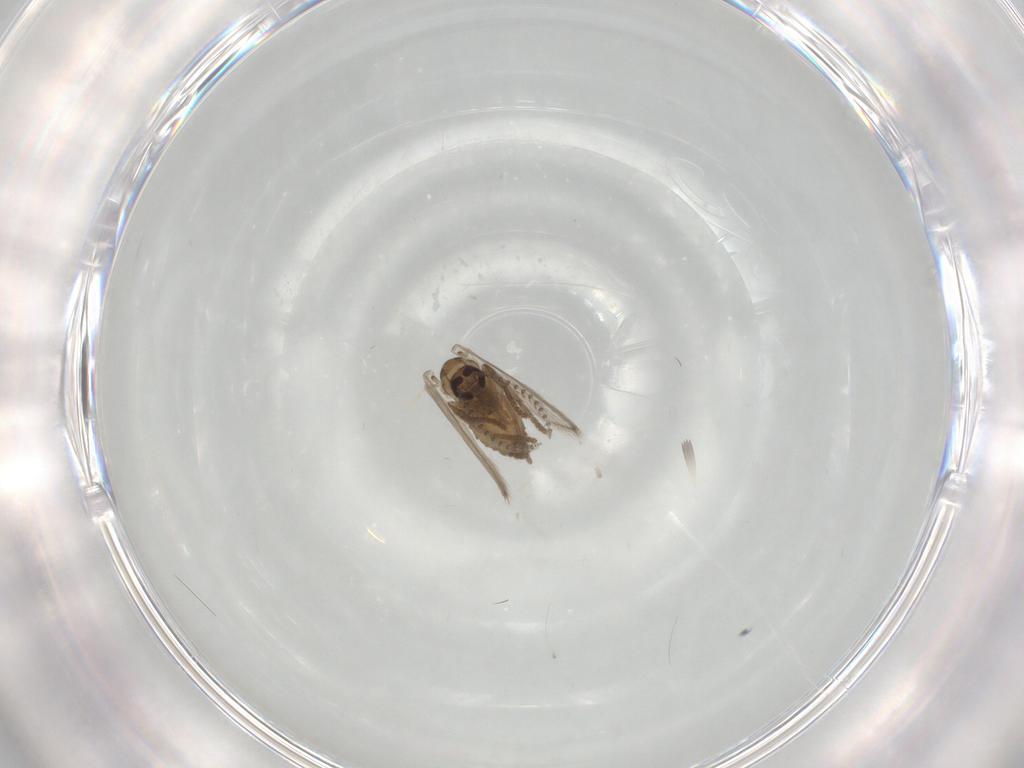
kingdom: Animalia
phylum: Arthropoda
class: Insecta
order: Diptera
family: Psychodidae
